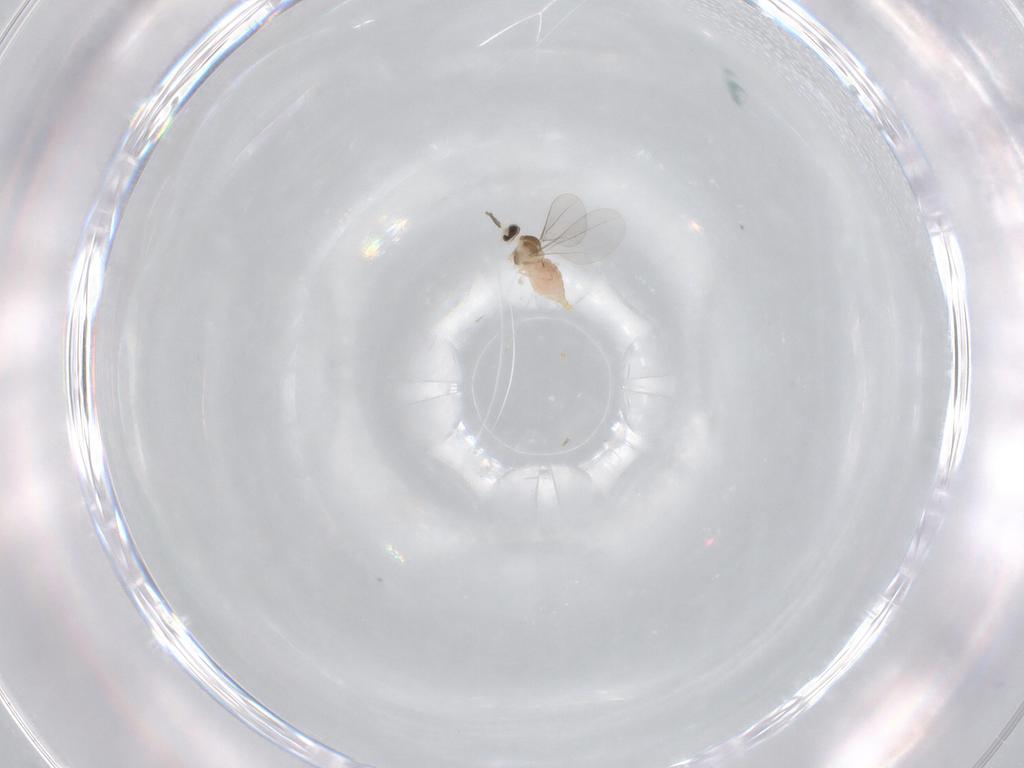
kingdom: Animalia
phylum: Arthropoda
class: Insecta
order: Diptera
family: Cecidomyiidae
